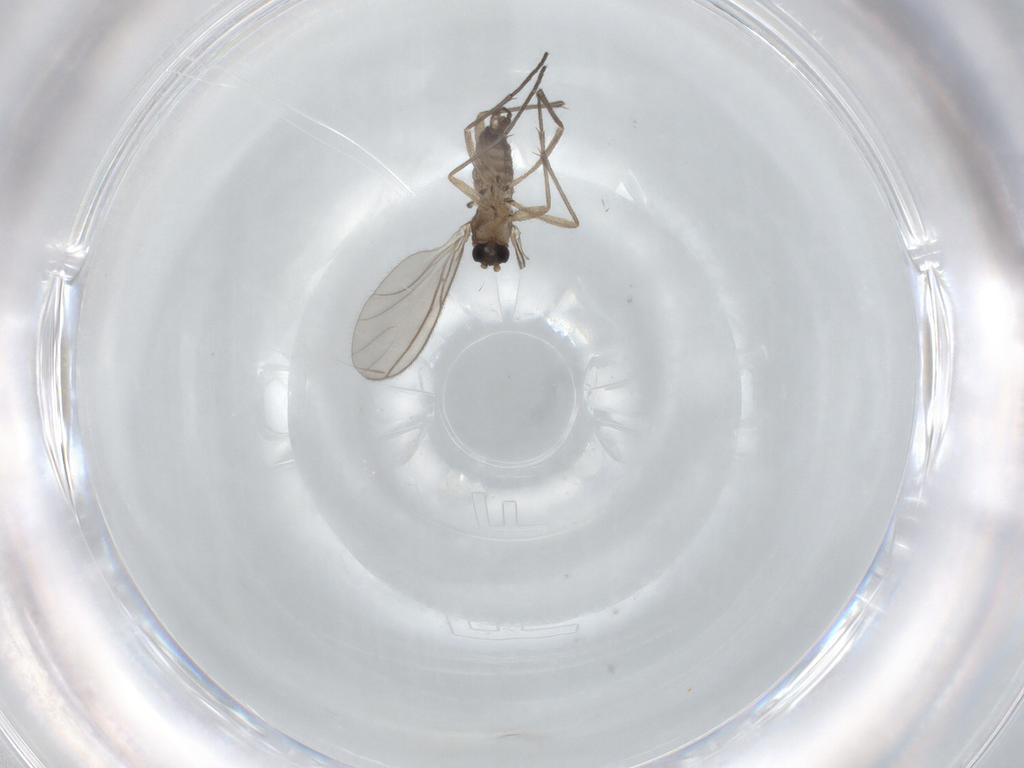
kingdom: Animalia
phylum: Arthropoda
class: Insecta
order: Diptera
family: Sciaridae
